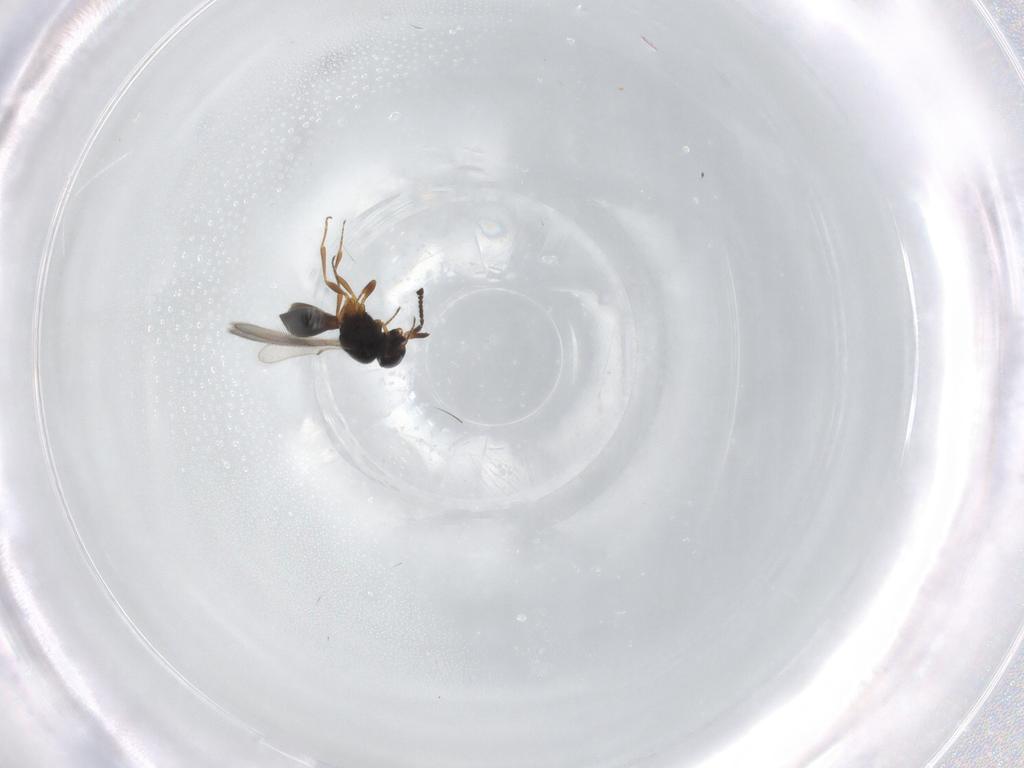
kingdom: Animalia
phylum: Arthropoda
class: Insecta
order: Hymenoptera
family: Scelionidae
